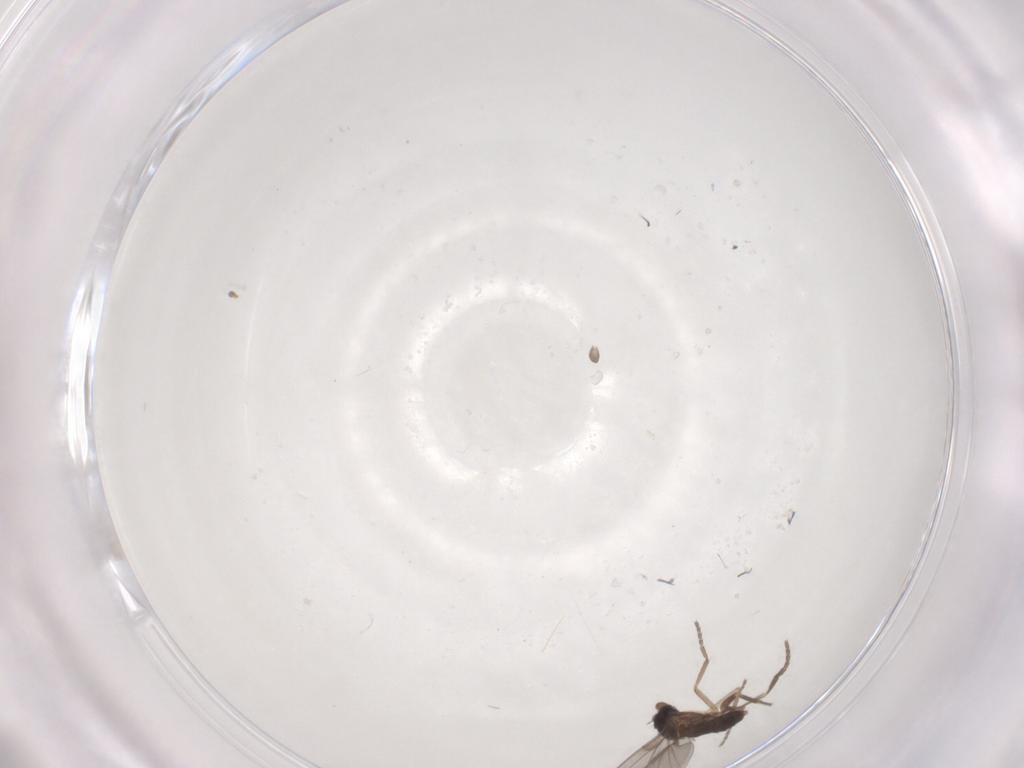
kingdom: Animalia
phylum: Arthropoda
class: Insecta
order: Diptera
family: Phoridae
